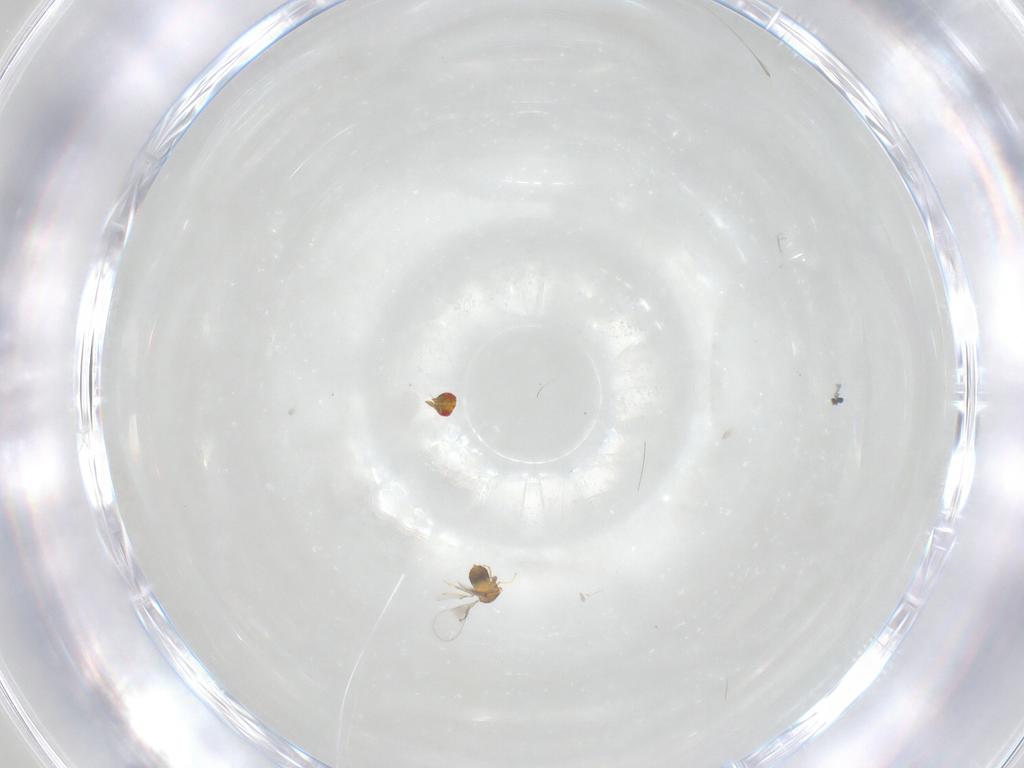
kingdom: Animalia
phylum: Arthropoda
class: Insecta
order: Hymenoptera
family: Trichogrammatidae
